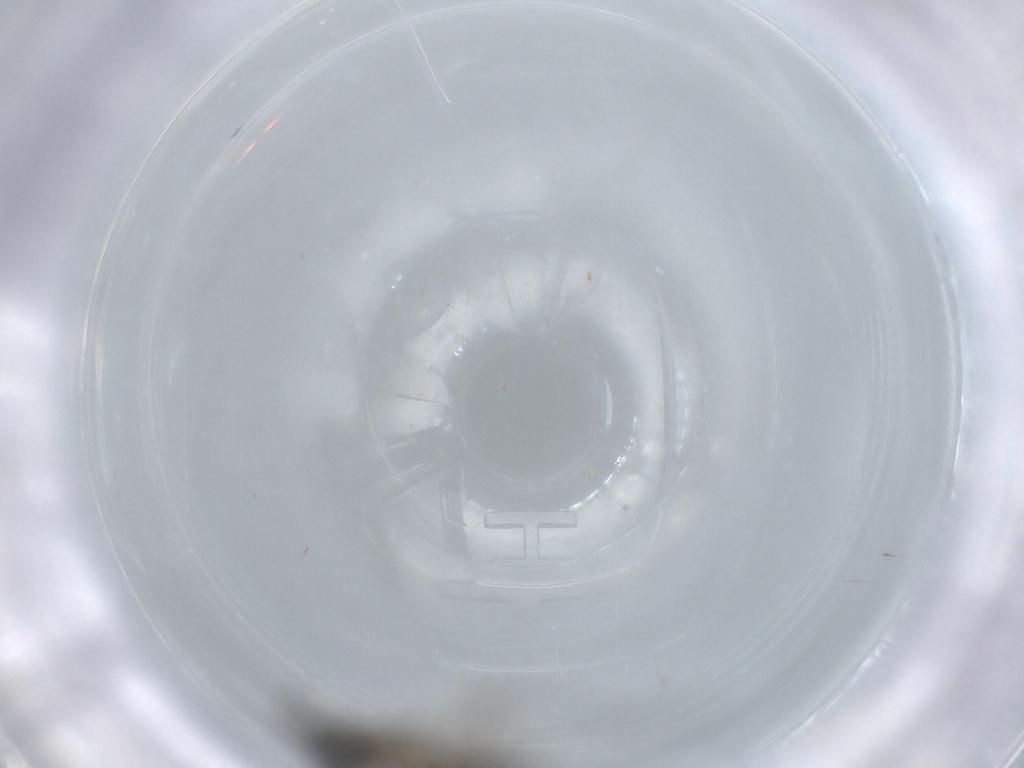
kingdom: Animalia
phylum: Arthropoda
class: Insecta
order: Diptera
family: Sciaridae
